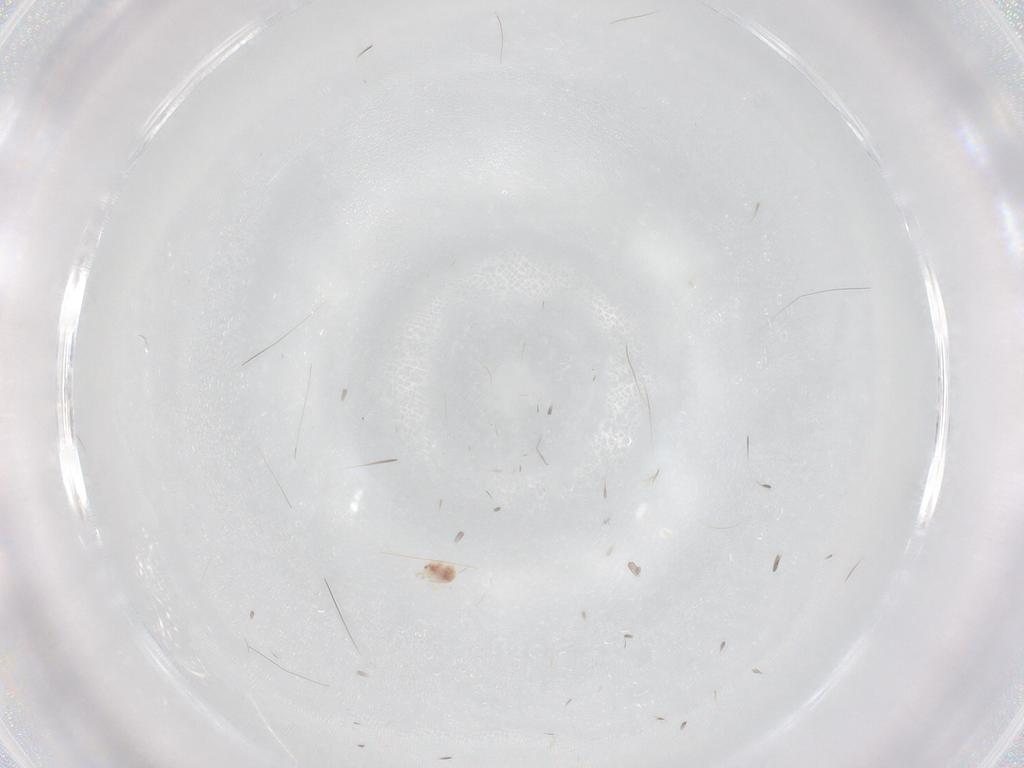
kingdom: Animalia
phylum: Arthropoda
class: Arachnida
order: Trombidiformes
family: Hygrobatidae
